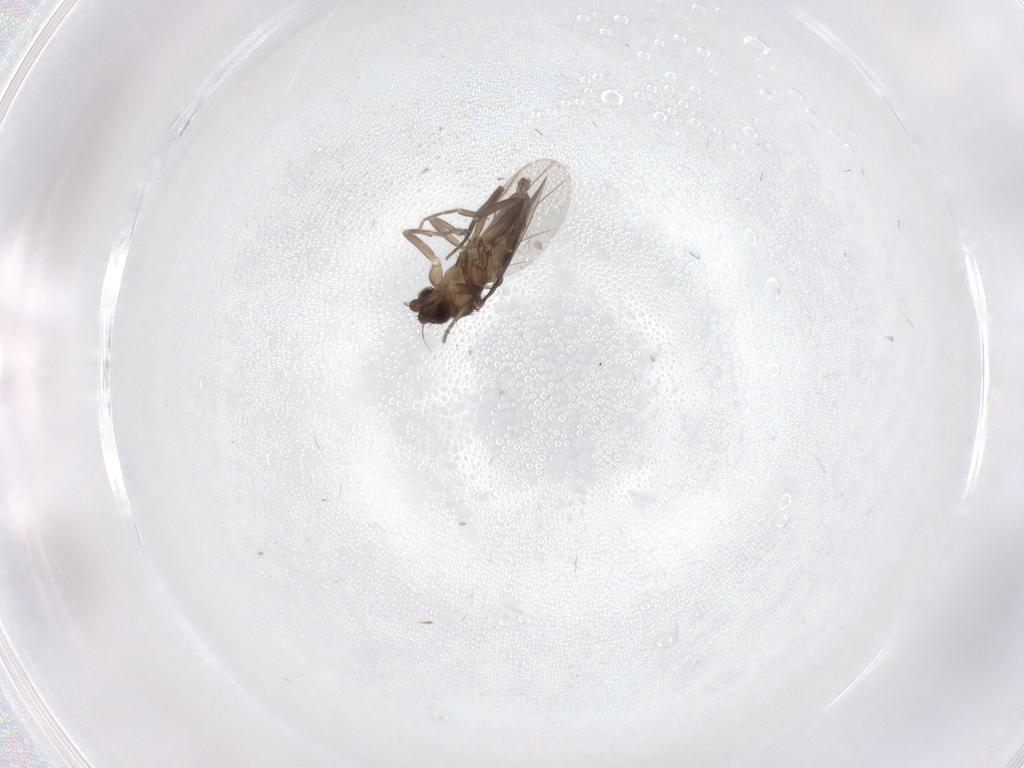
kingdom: Animalia
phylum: Arthropoda
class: Insecta
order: Diptera
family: Phoridae
